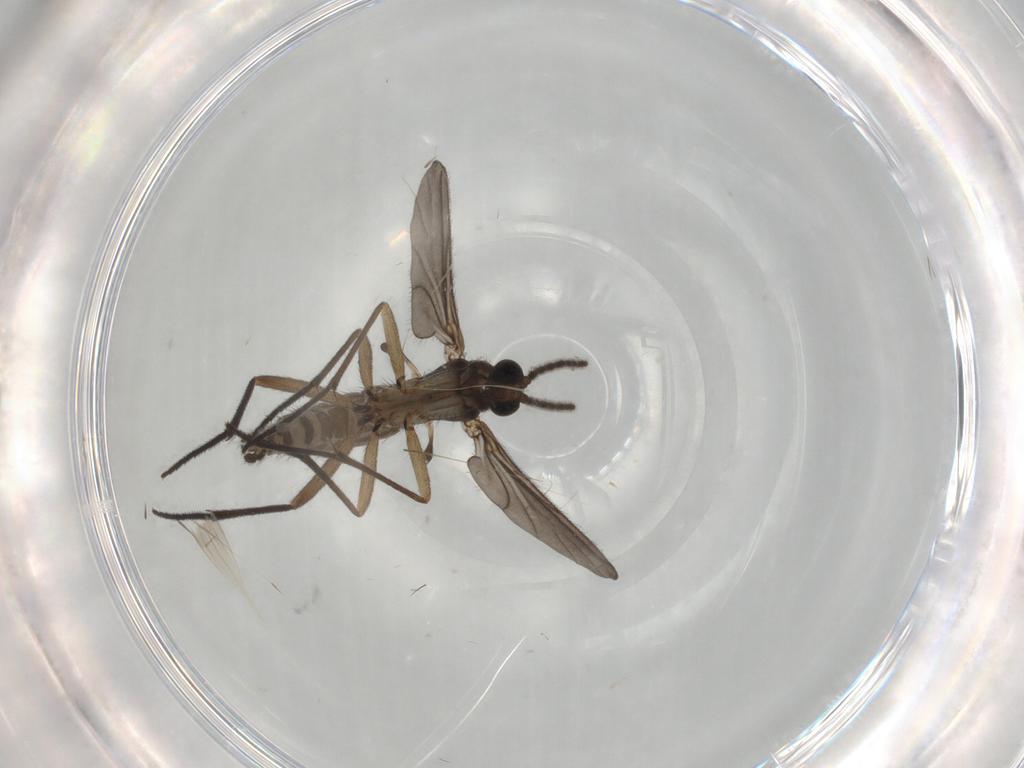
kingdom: Animalia
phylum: Arthropoda
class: Insecta
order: Diptera
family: Sciaridae
